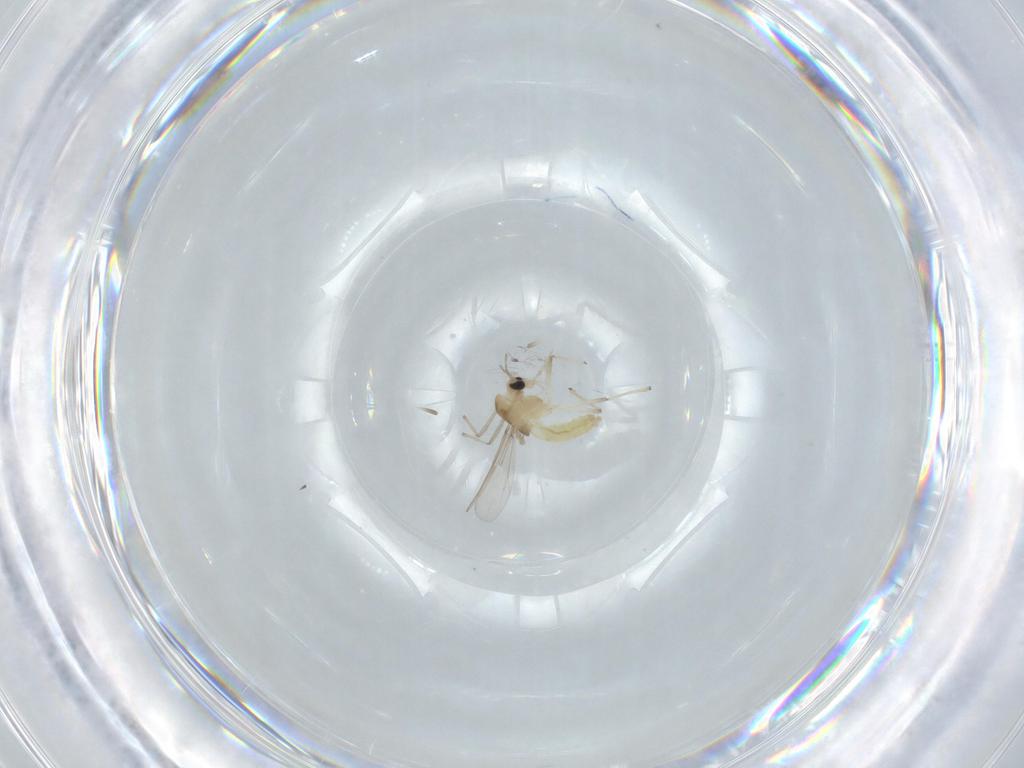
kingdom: Animalia
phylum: Arthropoda
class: Insecta
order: Diptera
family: Chironomidae
